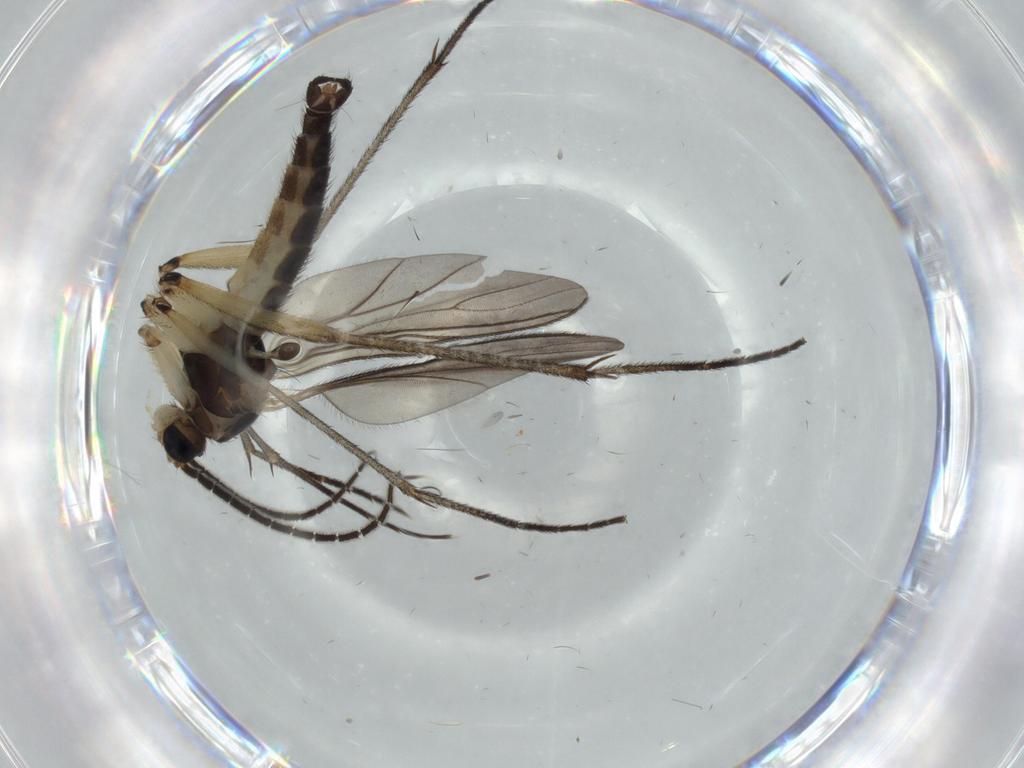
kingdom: Animalia
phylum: Arthropoda
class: Insecta
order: Diptera
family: Sciaridae
